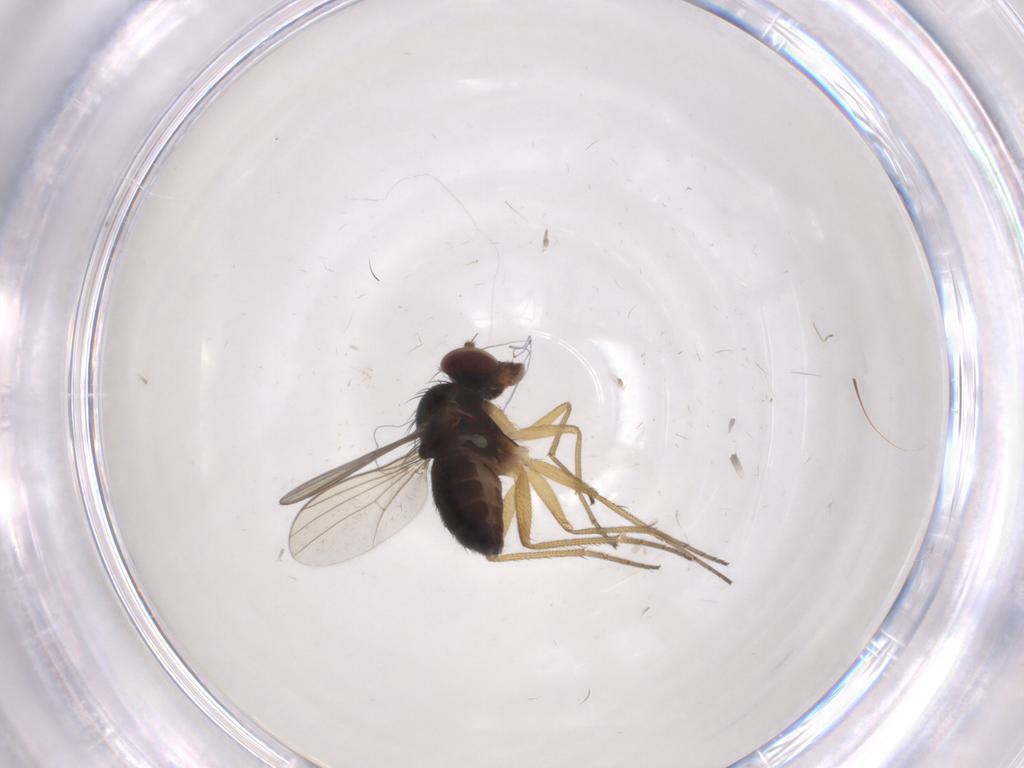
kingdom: Animalia
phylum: Arthropoda
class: Insecta
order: Diptera
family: Dolichopodidae
